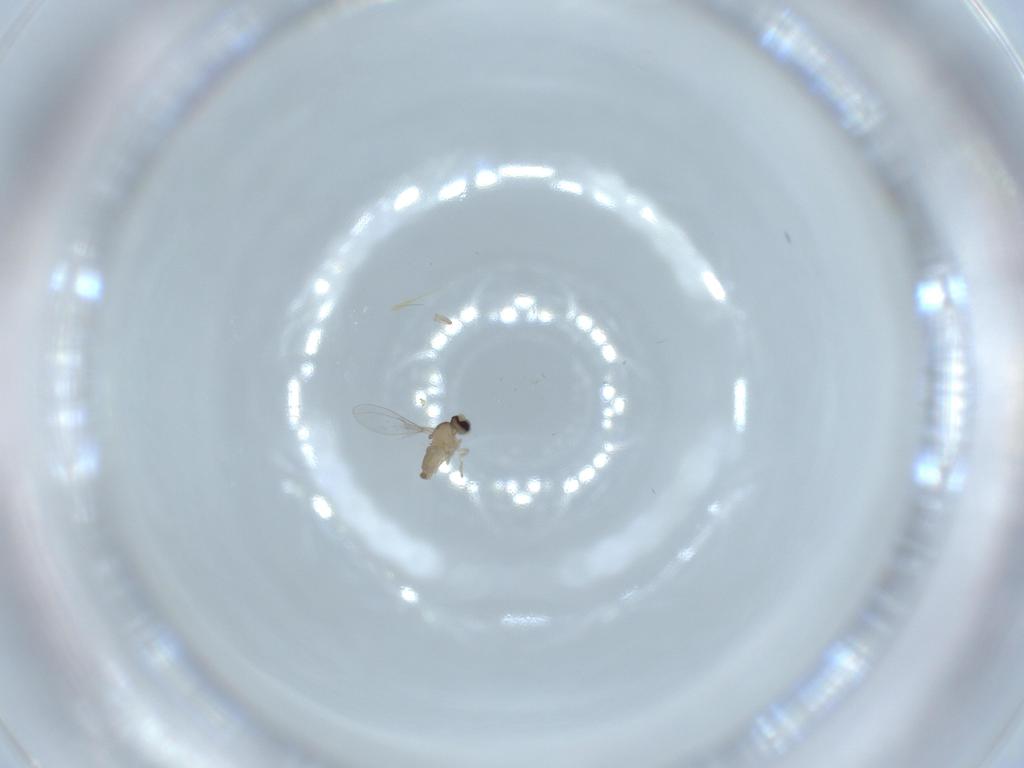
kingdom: Animalia
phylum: Arthropoda
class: Insecta
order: Diptera
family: Cecidomyiidae
